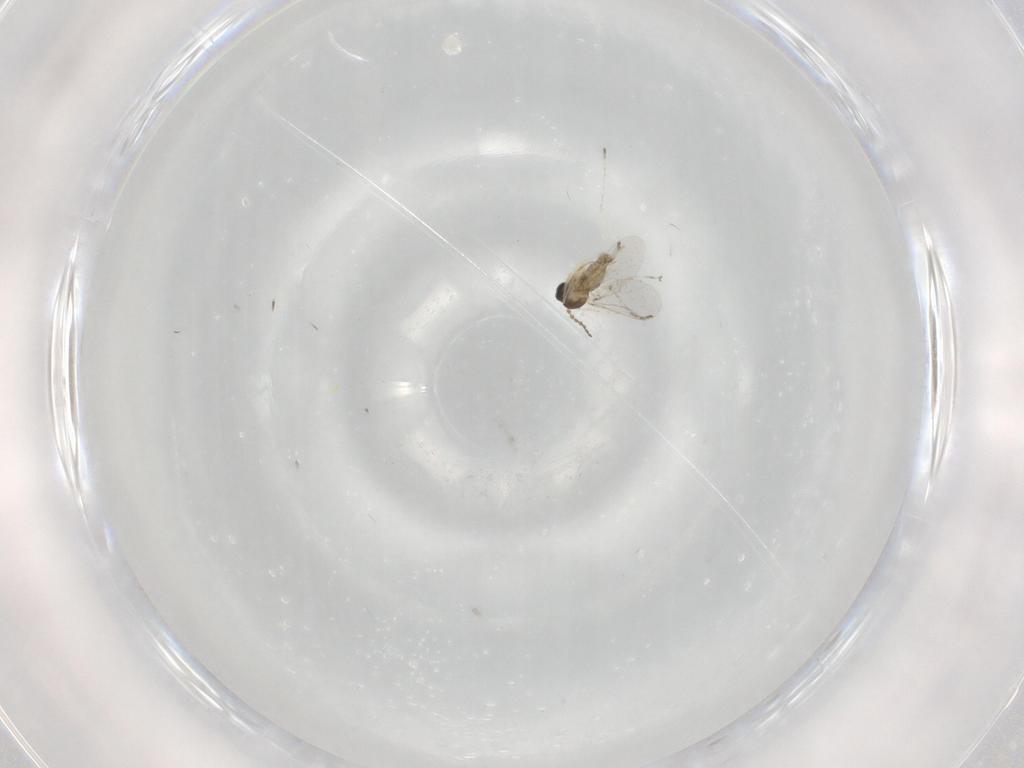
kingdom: Animalia
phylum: Arthropoda
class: Insecta
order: Diptera
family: Cecidomyiidae
